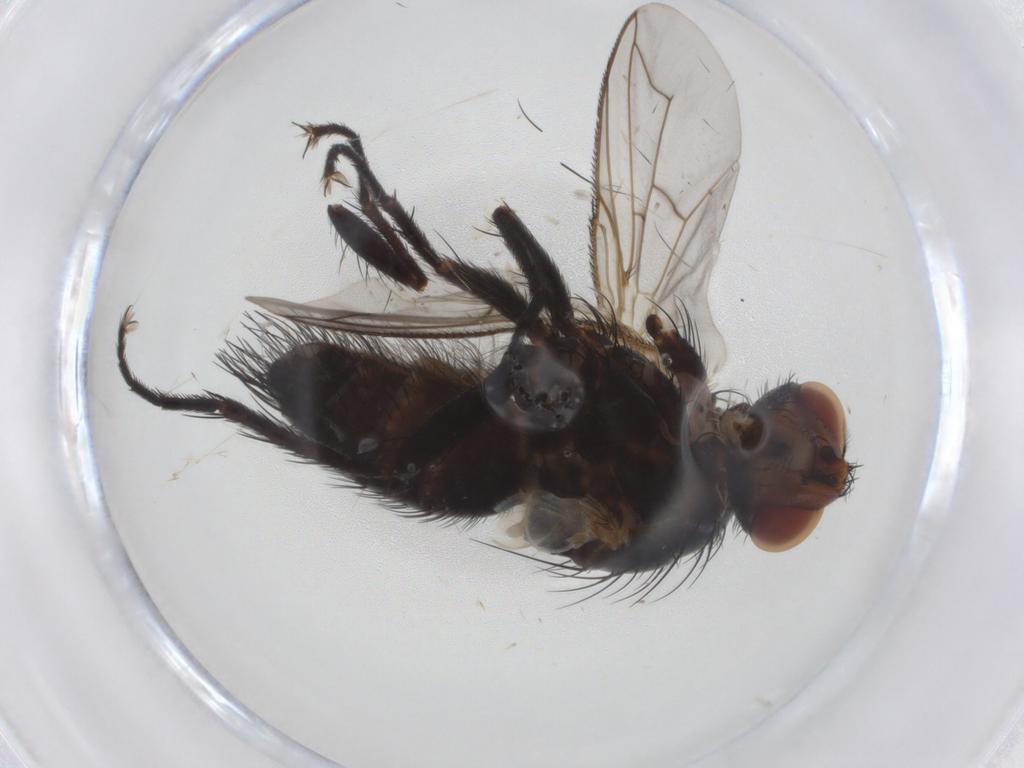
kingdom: Animalia
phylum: Arthropoda
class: Insecta
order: Diptera
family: Tachinidae
